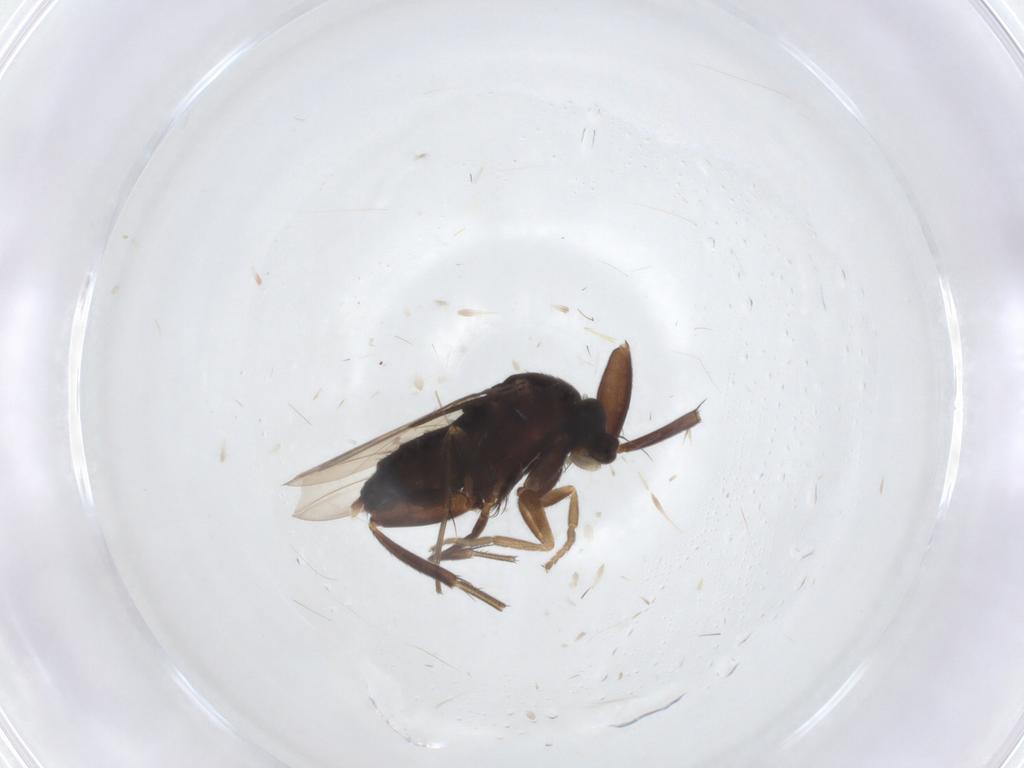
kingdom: Animalia
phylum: Arthropoda
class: Insecta
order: Diptera
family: Phoridae
